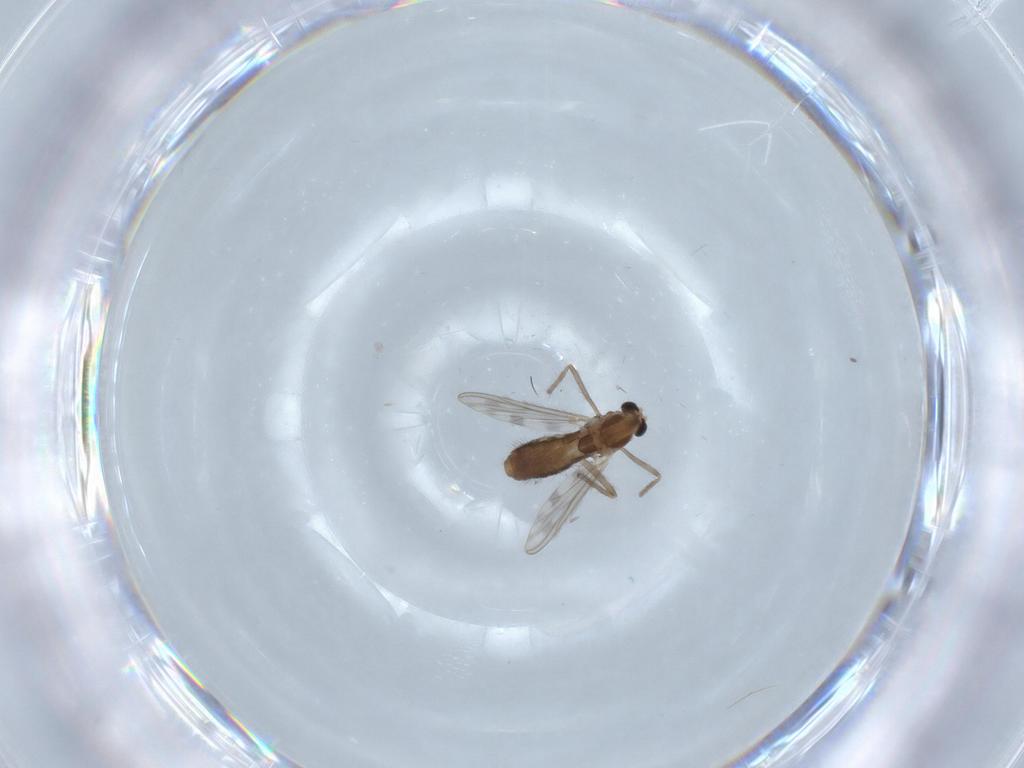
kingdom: Animalia
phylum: Arthropoda
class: Insecta
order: Diptera
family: Chironomidae
